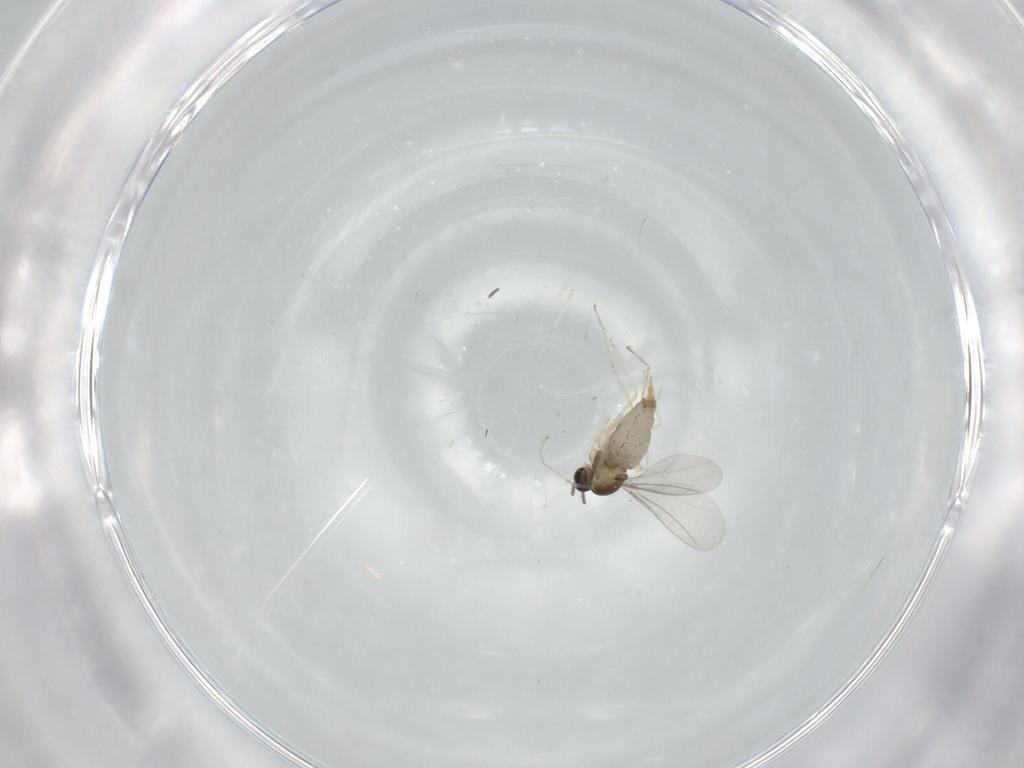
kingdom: Animalia
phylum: Arthropoda
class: Insecta
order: Diptera
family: Cecidomyiidae
